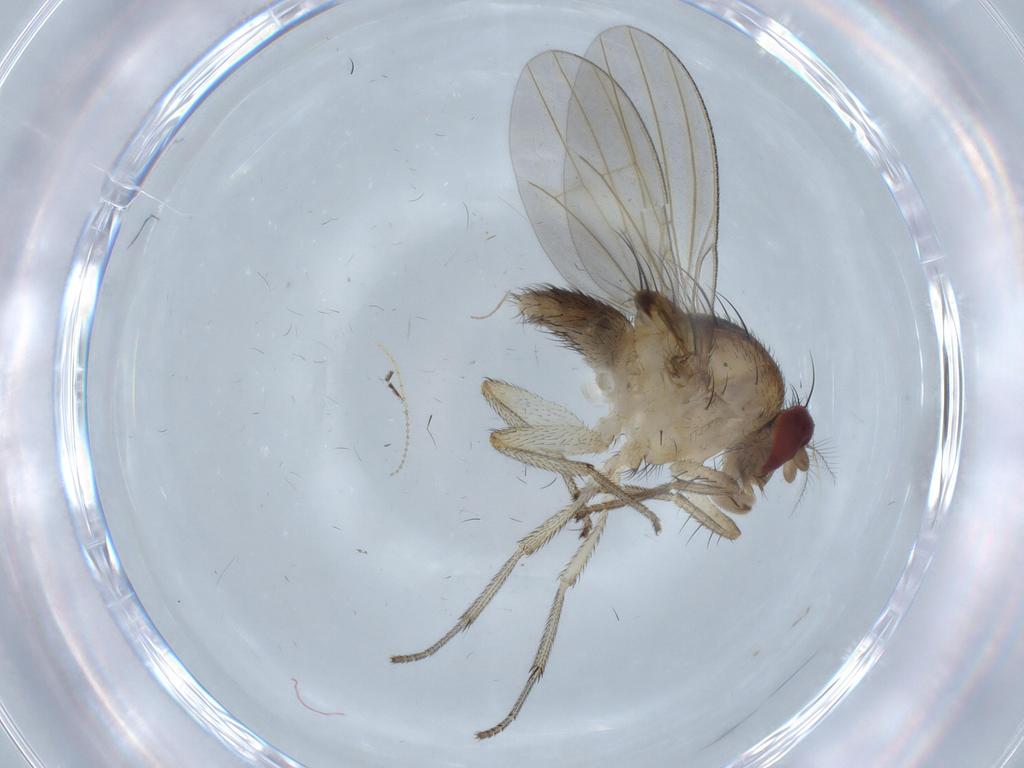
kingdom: Animalia
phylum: Arthropoda
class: Insecta
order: Diptera
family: Chironomidae
